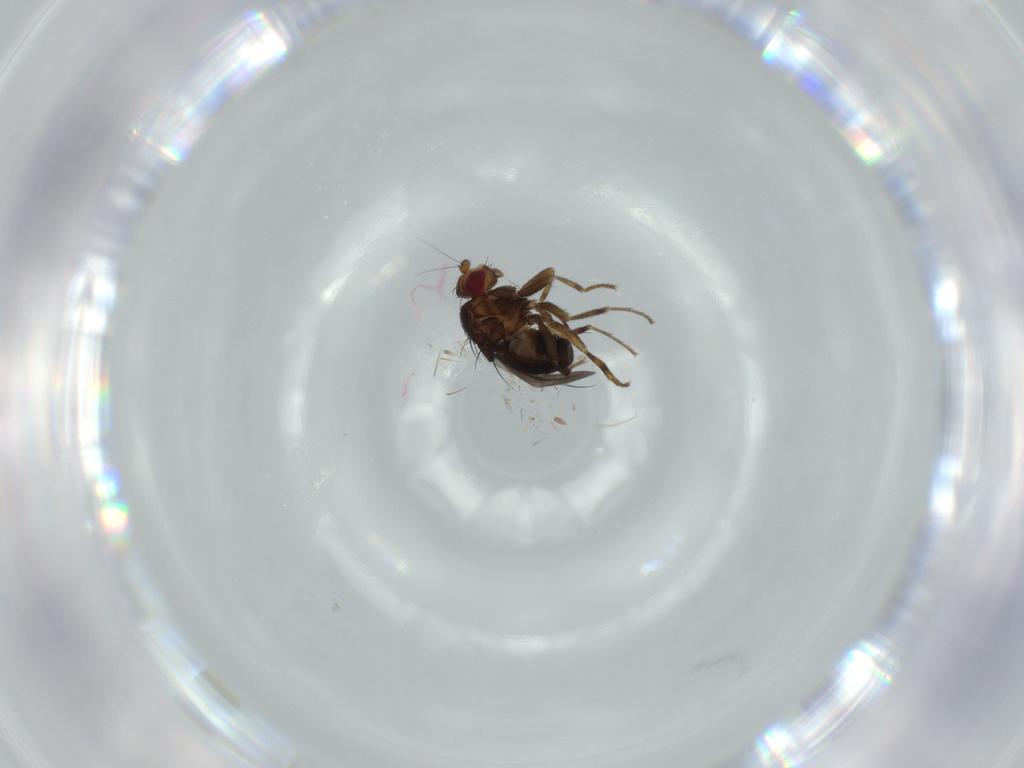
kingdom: Animalia
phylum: Arthropoda
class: Insecta
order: Diptera
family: Sphaeroceridae
